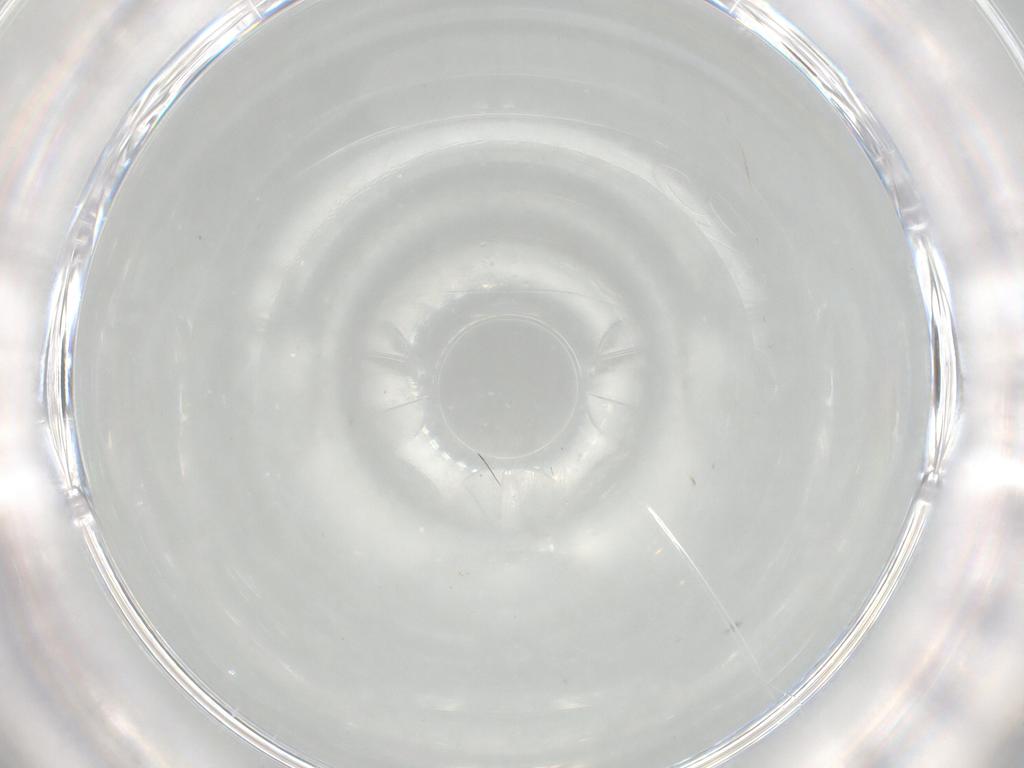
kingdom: Animalia
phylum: Arthropoda
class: Insecta
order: Diptera
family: Cecidomyiidae
